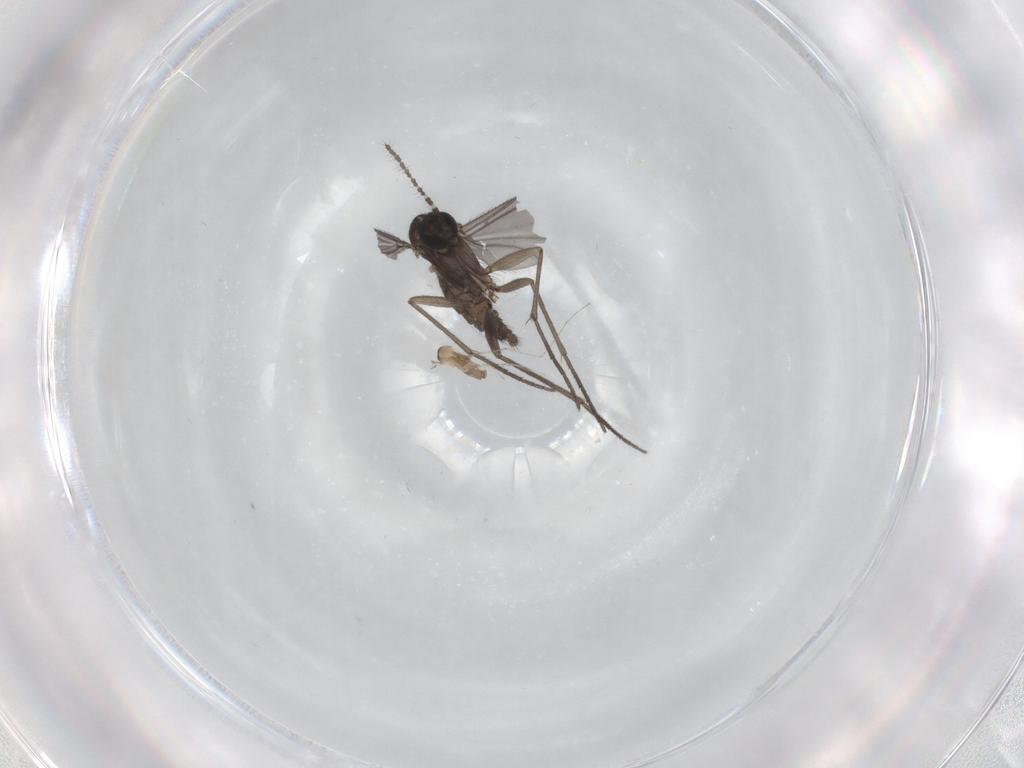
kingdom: Animalia
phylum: Arthropoda
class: Insecta
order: Diptera
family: Sciaridae
